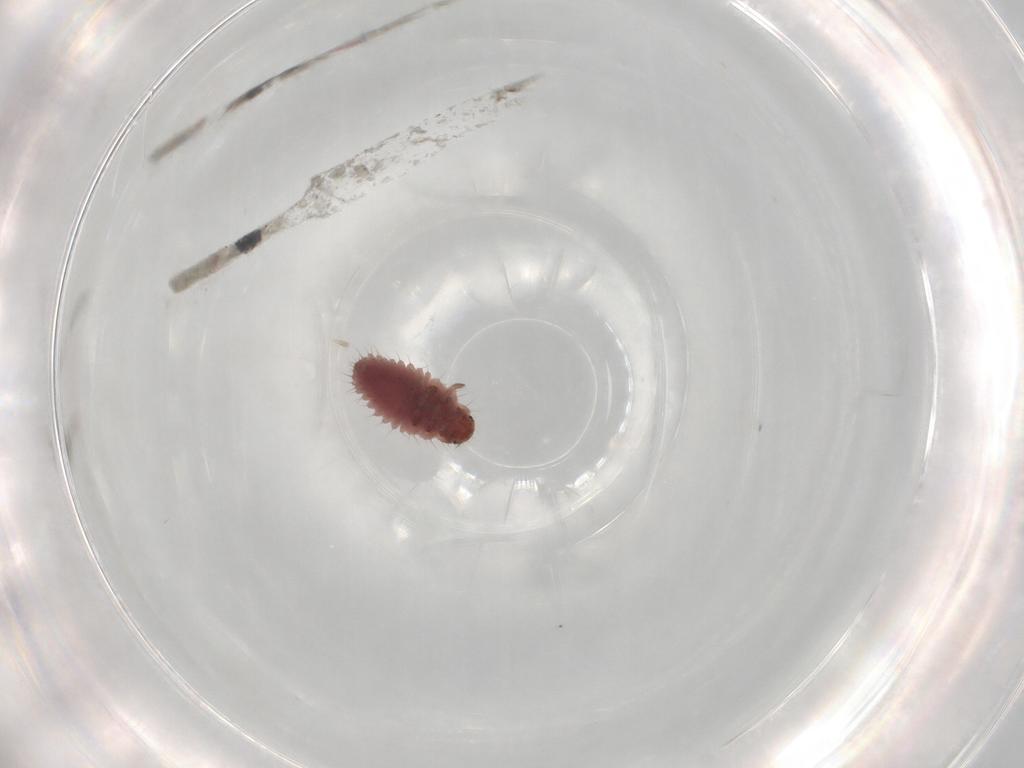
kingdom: Animalia
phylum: Arthropoda
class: Insecta
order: Coleoptera
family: Coccinellidae
